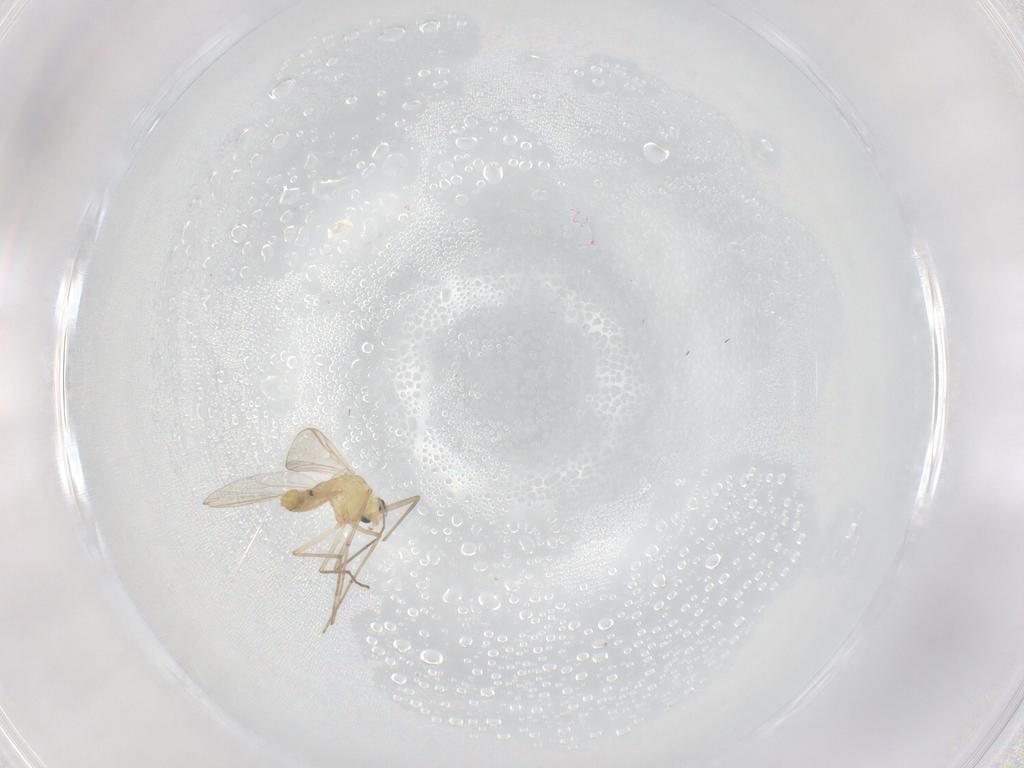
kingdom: Animalia
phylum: Arthropoda
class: Insecta
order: Diptera
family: Chironomidae
